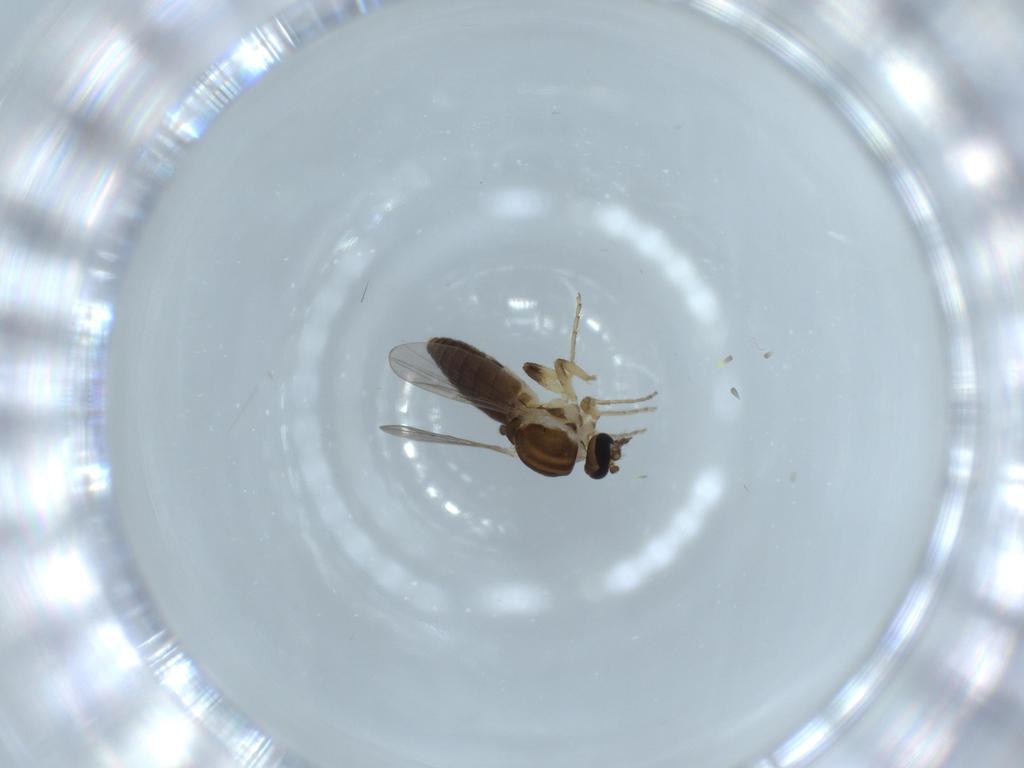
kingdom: Animalia
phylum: Arthropoda
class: Insecta
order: Diptera
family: Ceratopogonidae
